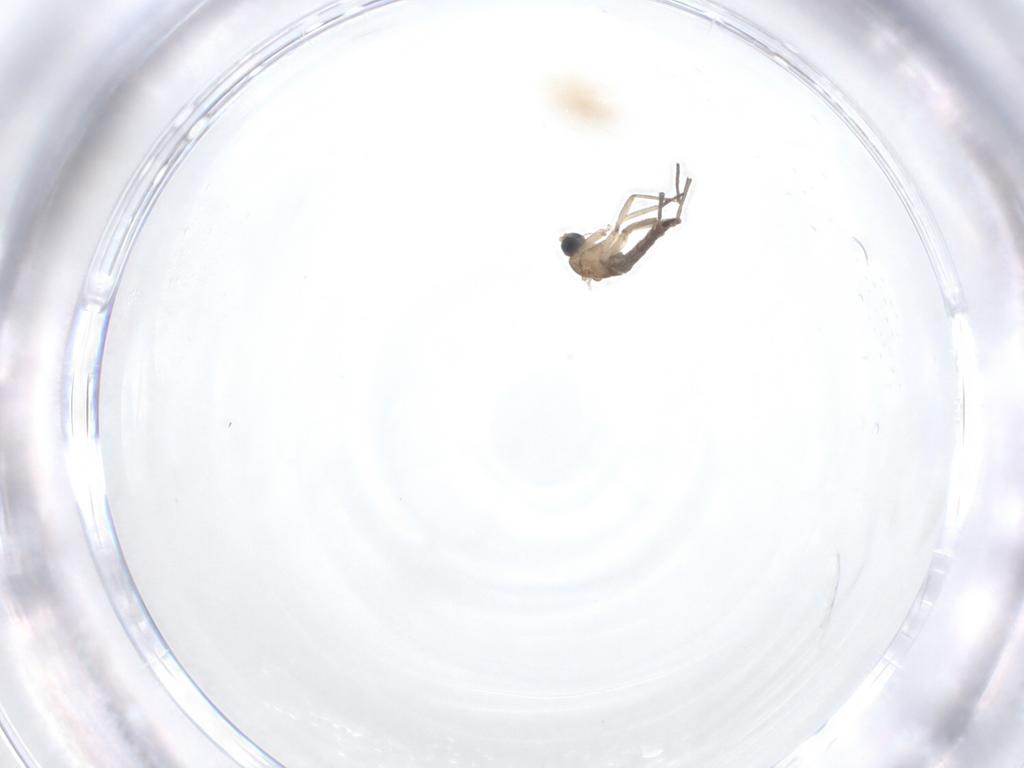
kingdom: Animalia
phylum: Arthropoda
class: Insecta
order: Diptera
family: Sciaridae
